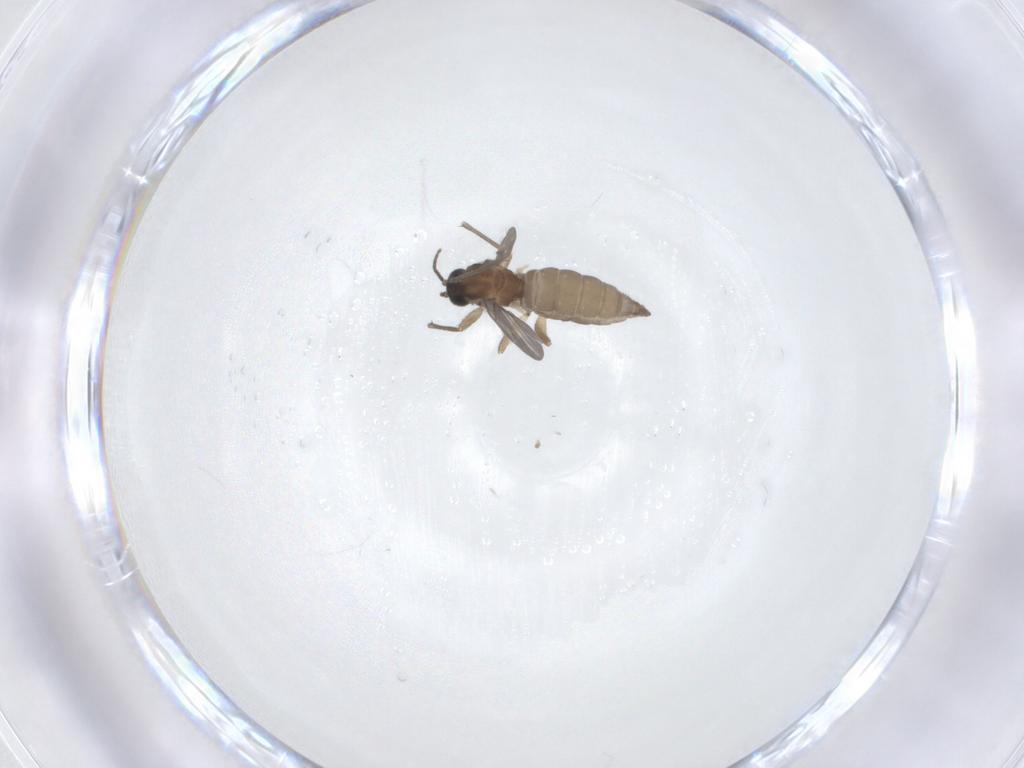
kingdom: Animalia
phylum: Arthropoda
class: Insecta
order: Diptera
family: Sciaridae
